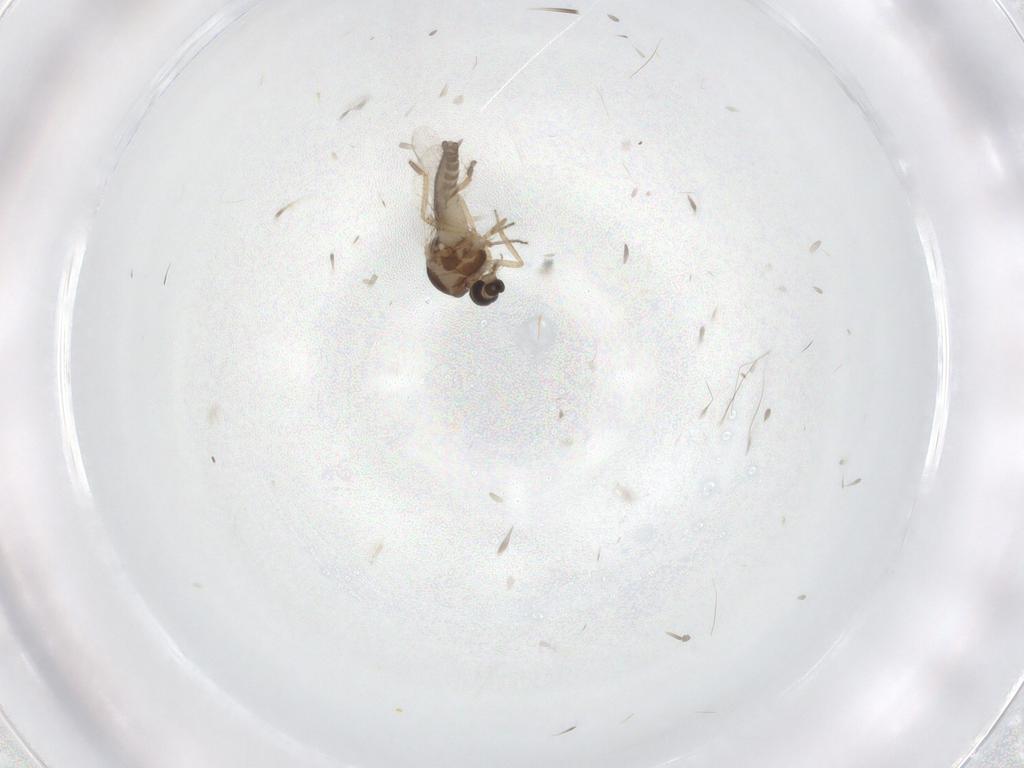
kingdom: Animalia
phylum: Arthropoda
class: Insecta
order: Diptera
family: Ceratopogonidae
